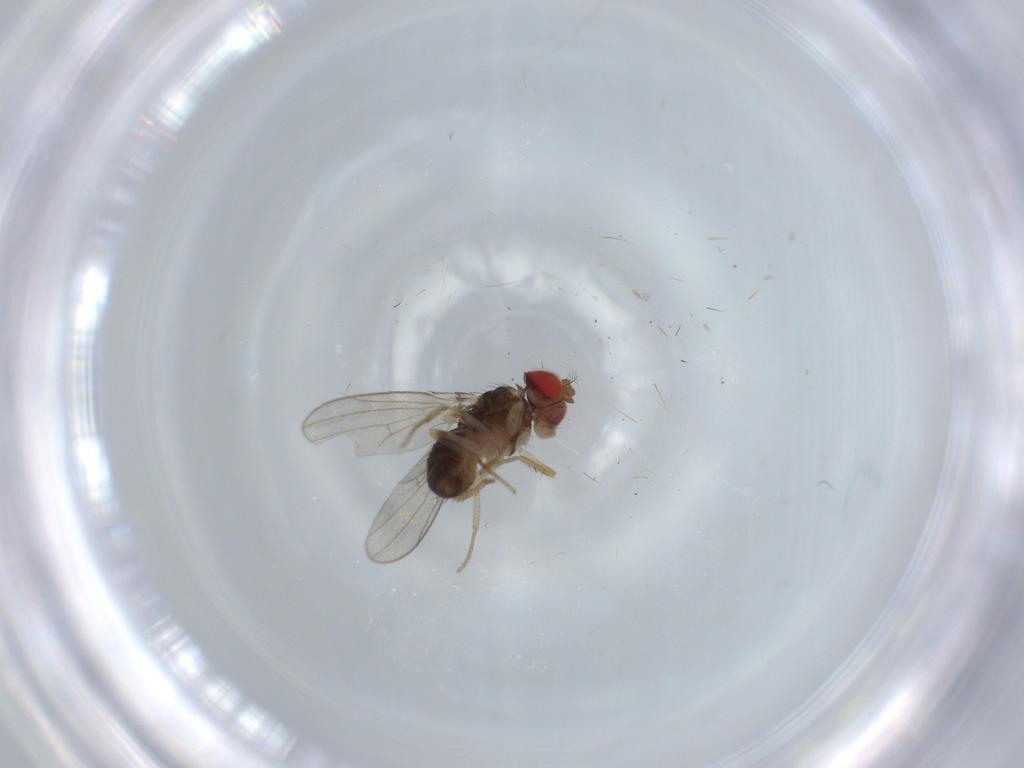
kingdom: Animalia
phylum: Arthropoda
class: Insecta
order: Diptera
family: Drosophilidae
